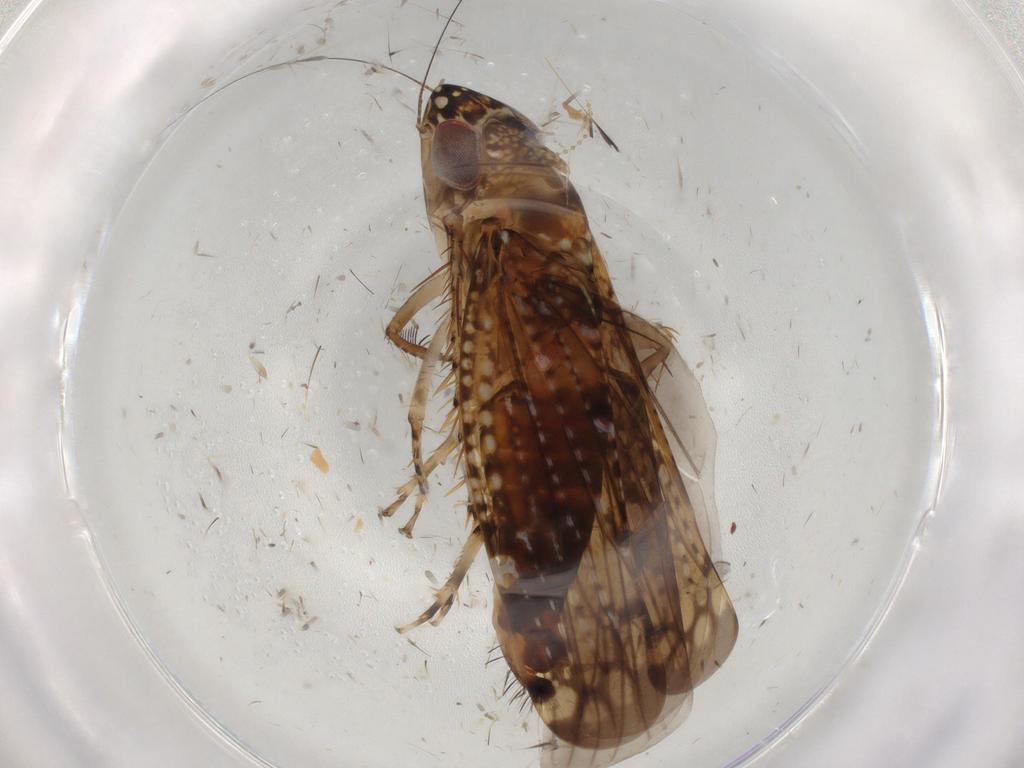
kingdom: Animalia
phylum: Arthropoda
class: Insecta
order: Hemiptera
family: Cicadellidae
